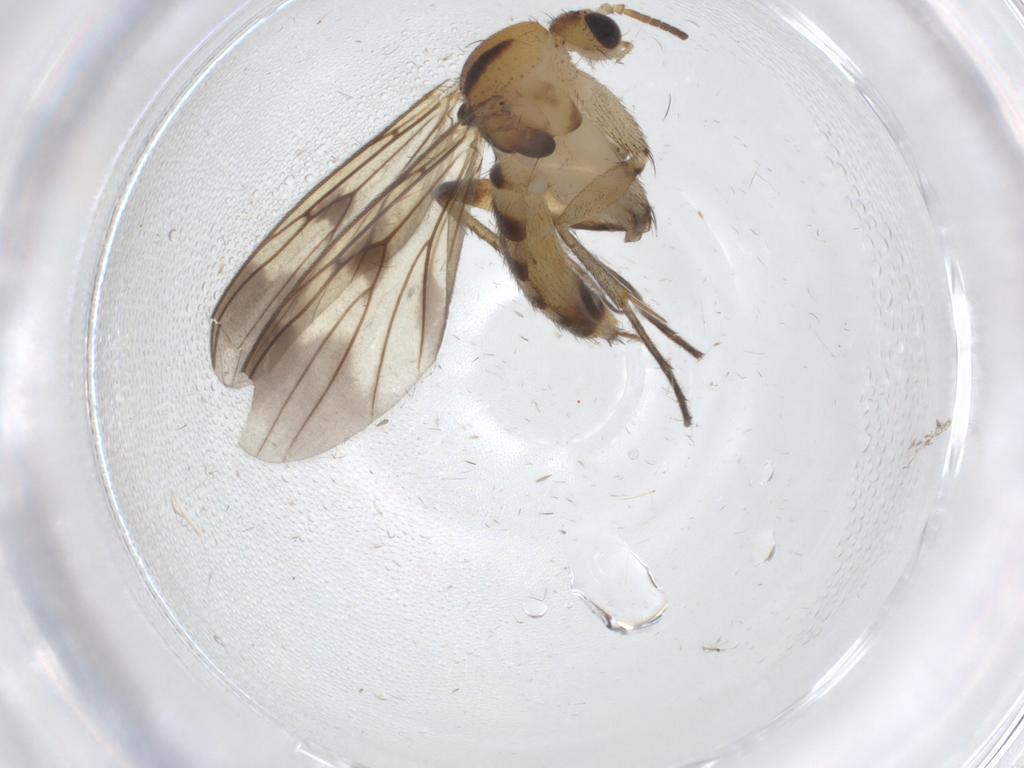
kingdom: Animalia
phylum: Arthropoda
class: Insecta
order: Diptera
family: Mycetophilidae
